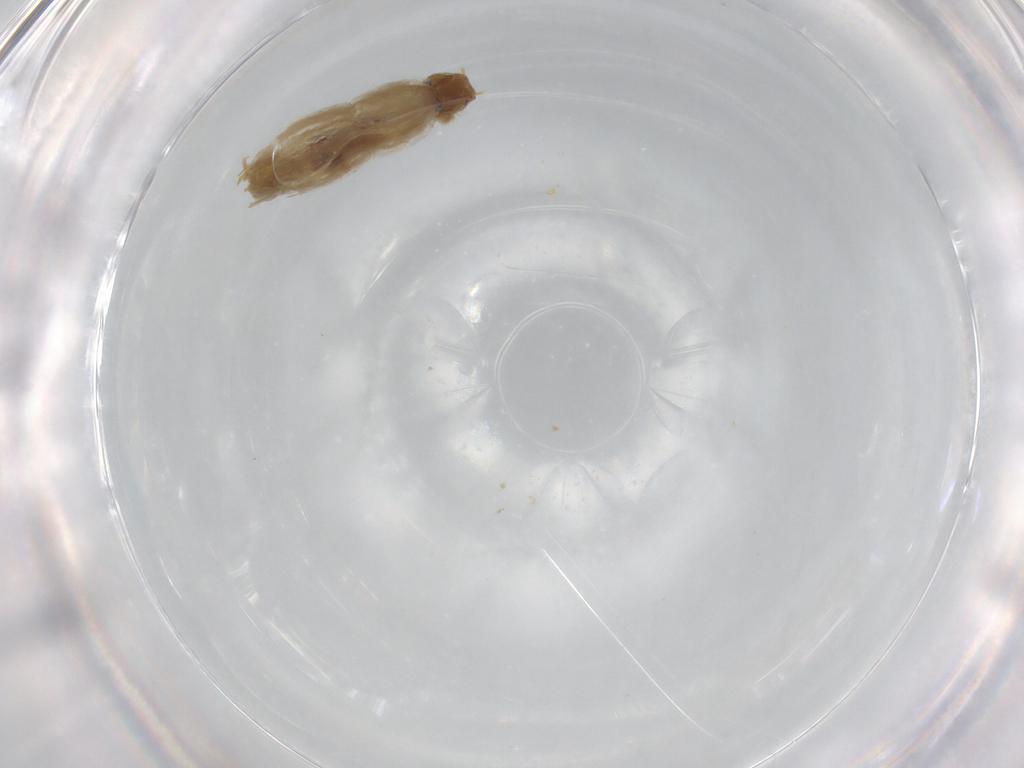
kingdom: Animalia
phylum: Arthropoda
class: Insecta
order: Diptera
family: Chironomidae
